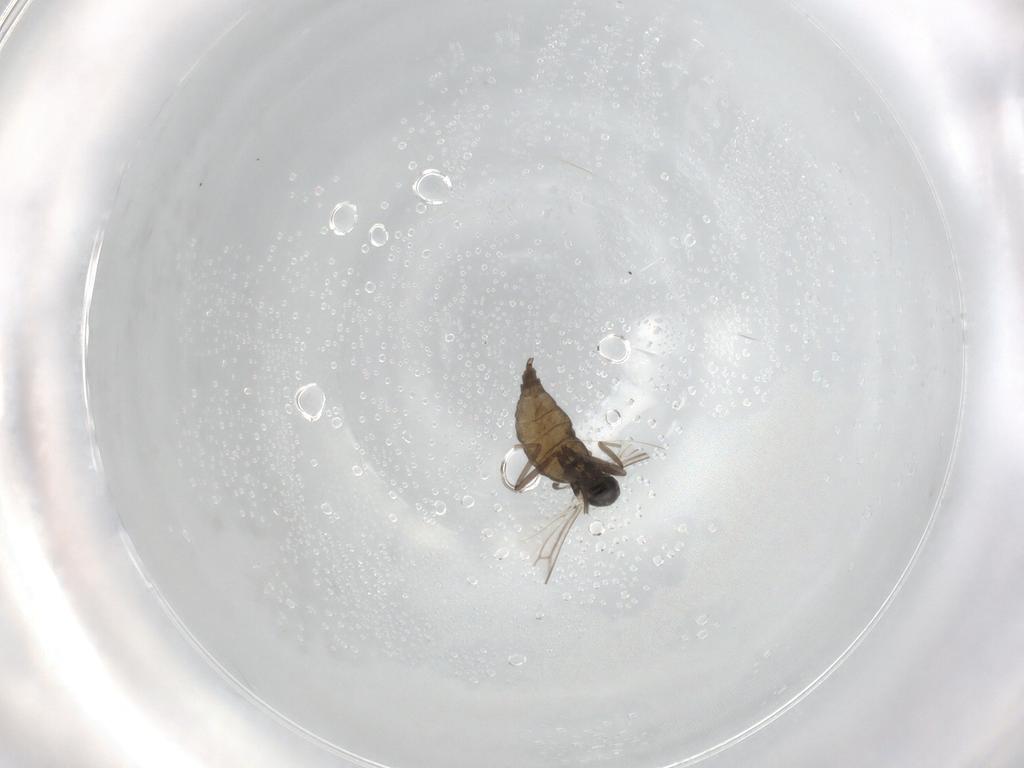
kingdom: Animalia
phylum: Arthropoda
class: Insecta
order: Diptera
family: Cecidomyiidae
